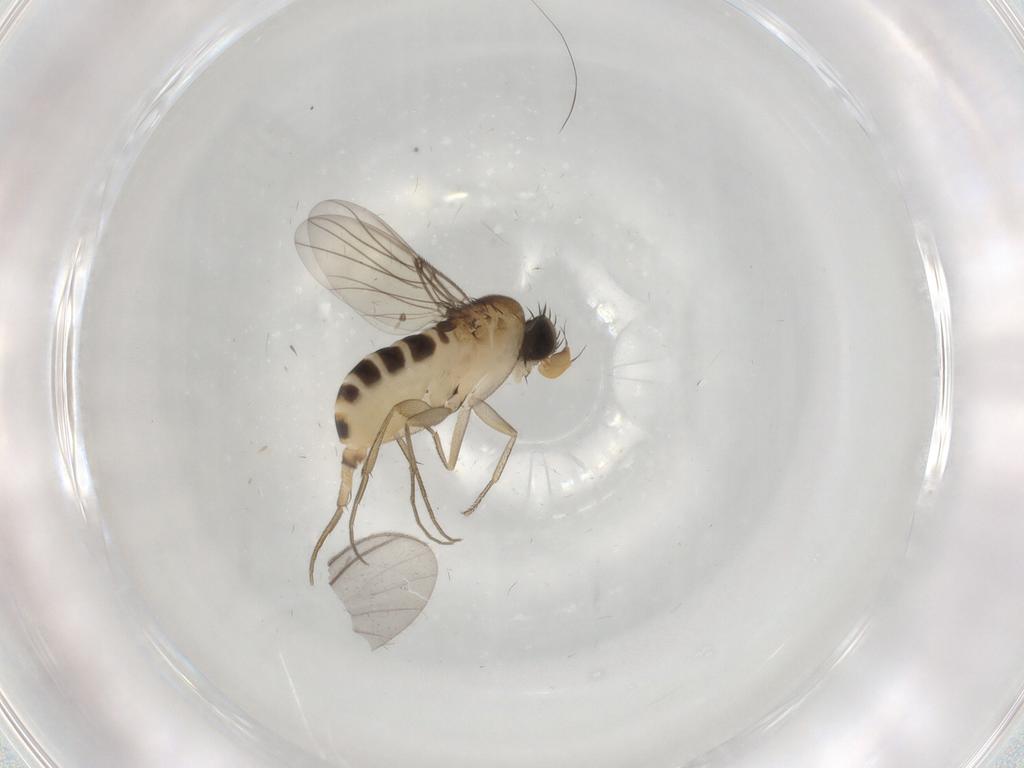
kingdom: Animalia
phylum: Arthropoda
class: Insecta
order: Diptera
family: Phoridae
